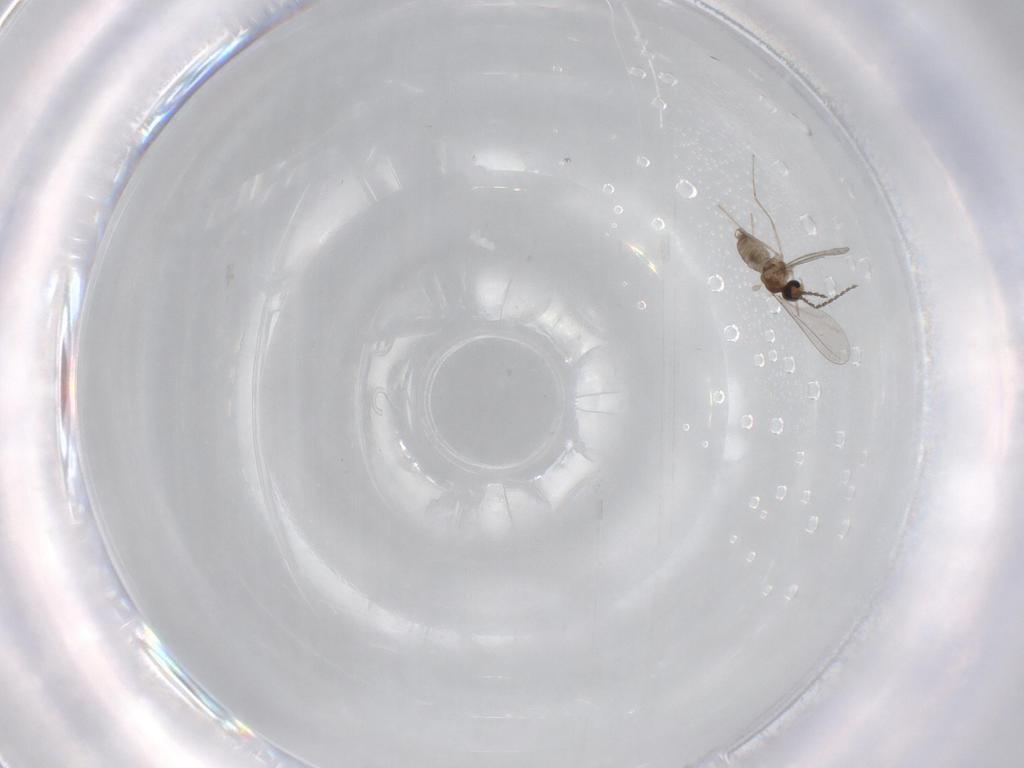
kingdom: Animalia
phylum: Arthropoda
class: Insecta
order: Diptera
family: Chironomidae
